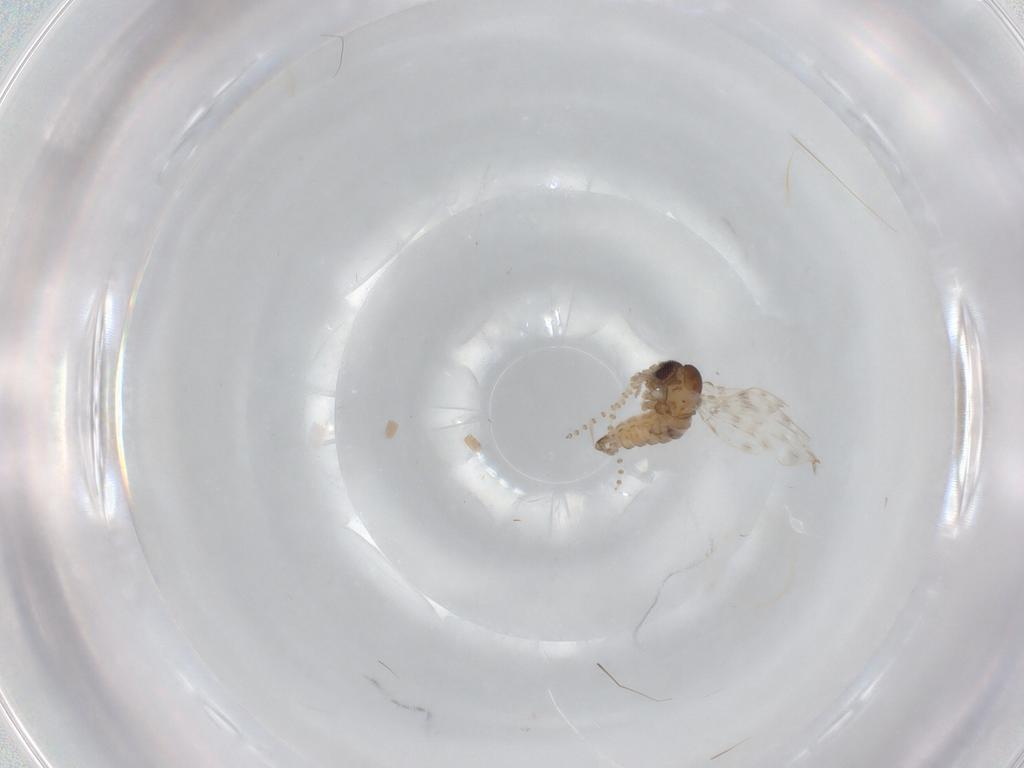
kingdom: Animalia
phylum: Arthropoda
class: Insecta
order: Diptera
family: Psychodidae
